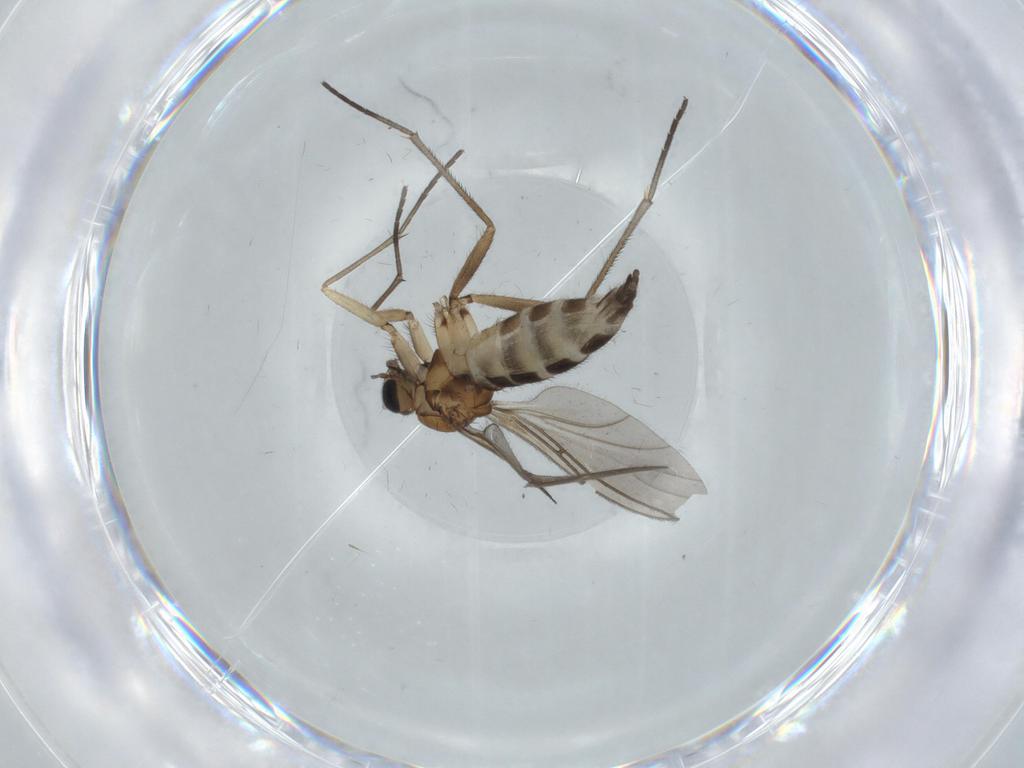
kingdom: Animalia
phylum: Arthropoda
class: Insecta
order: Diptera
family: Sciaridae
